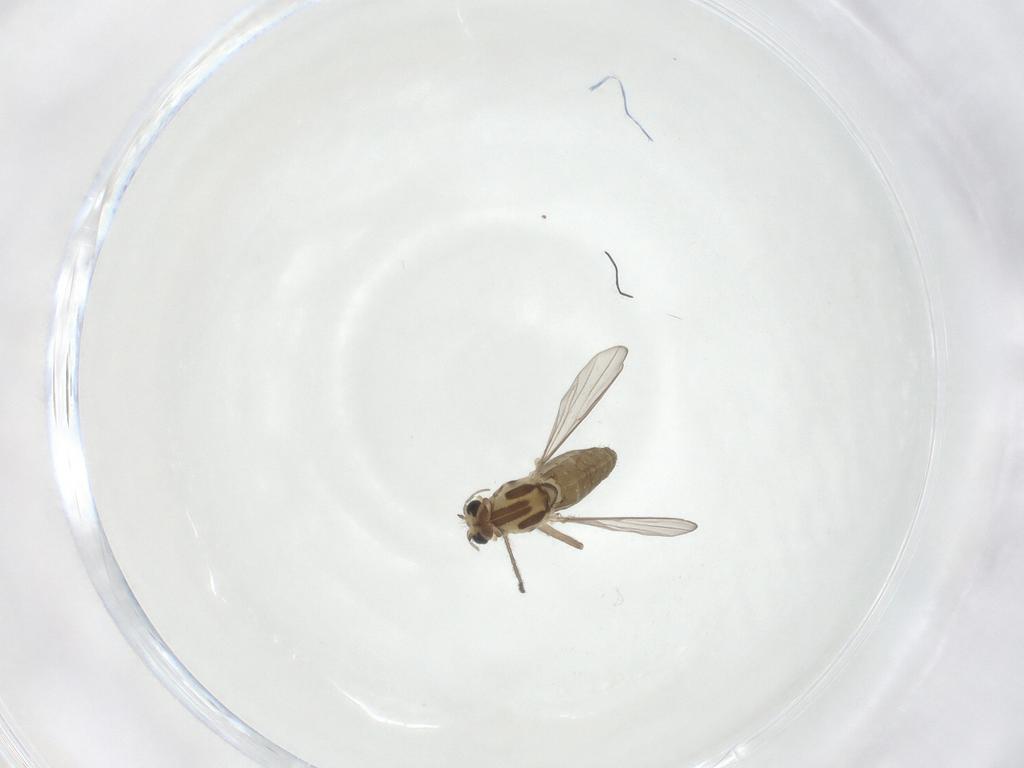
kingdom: Animalia
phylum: Arthropoda
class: Insecta
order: Diptera
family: Chironomidae
